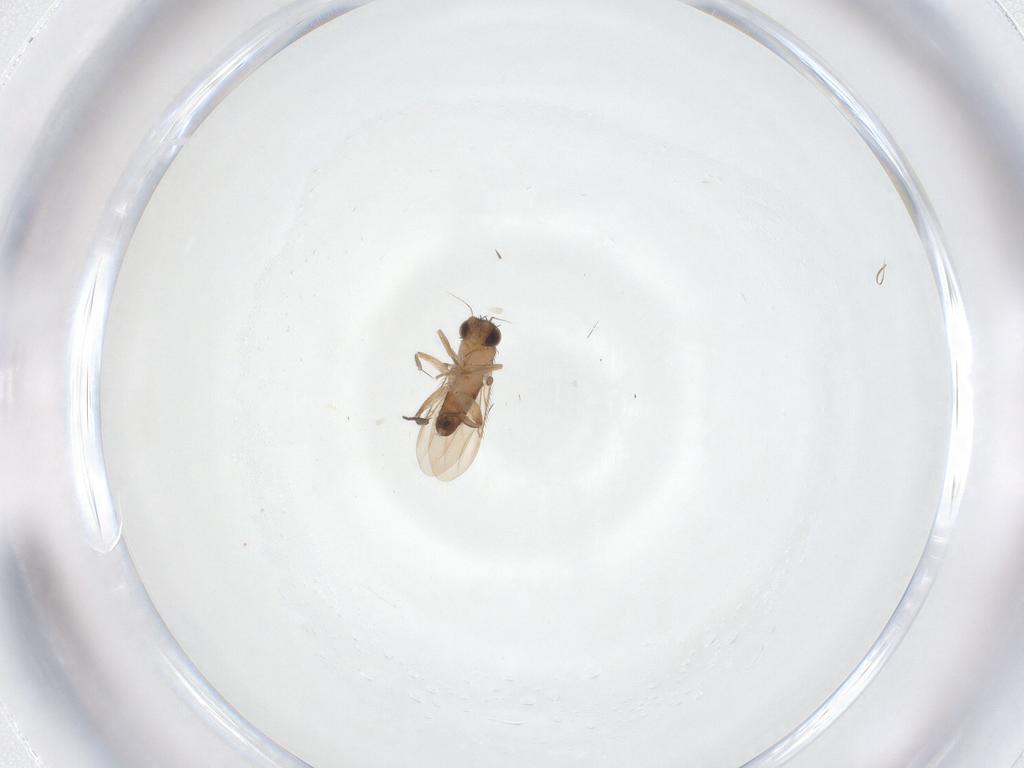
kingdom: Animalia
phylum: Arthropoda
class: Insecta
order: Diptera
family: Phoridae
